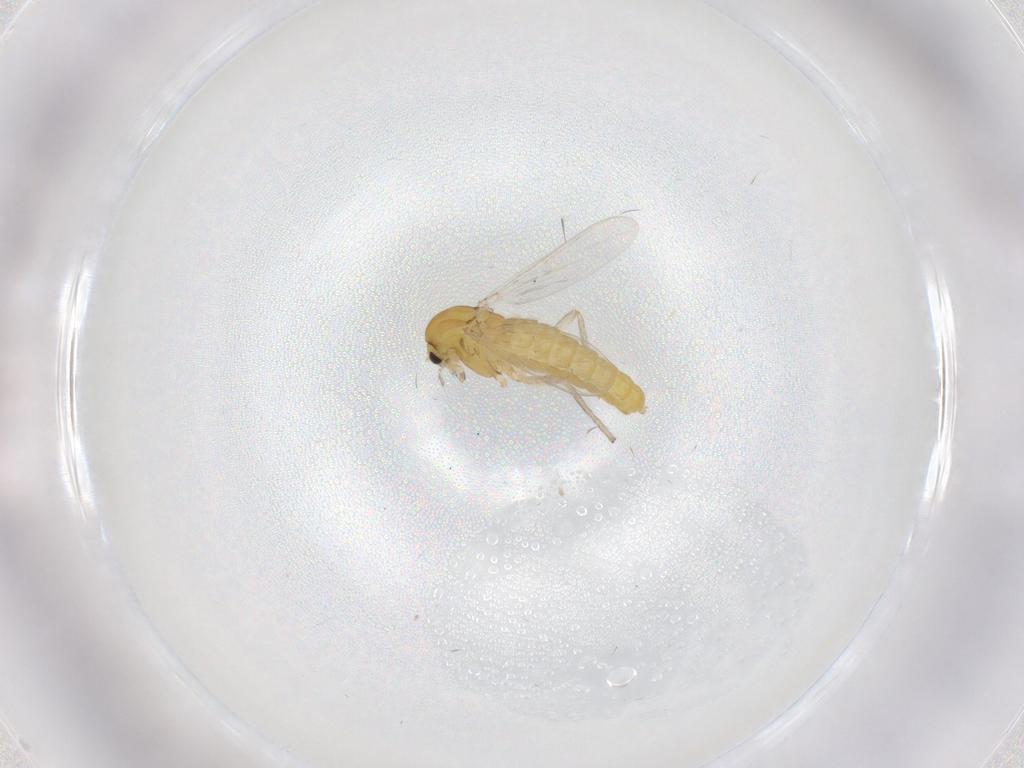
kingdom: Animalia
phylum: Arthropoda
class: Insecta
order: Diptera
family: Chironomidae
